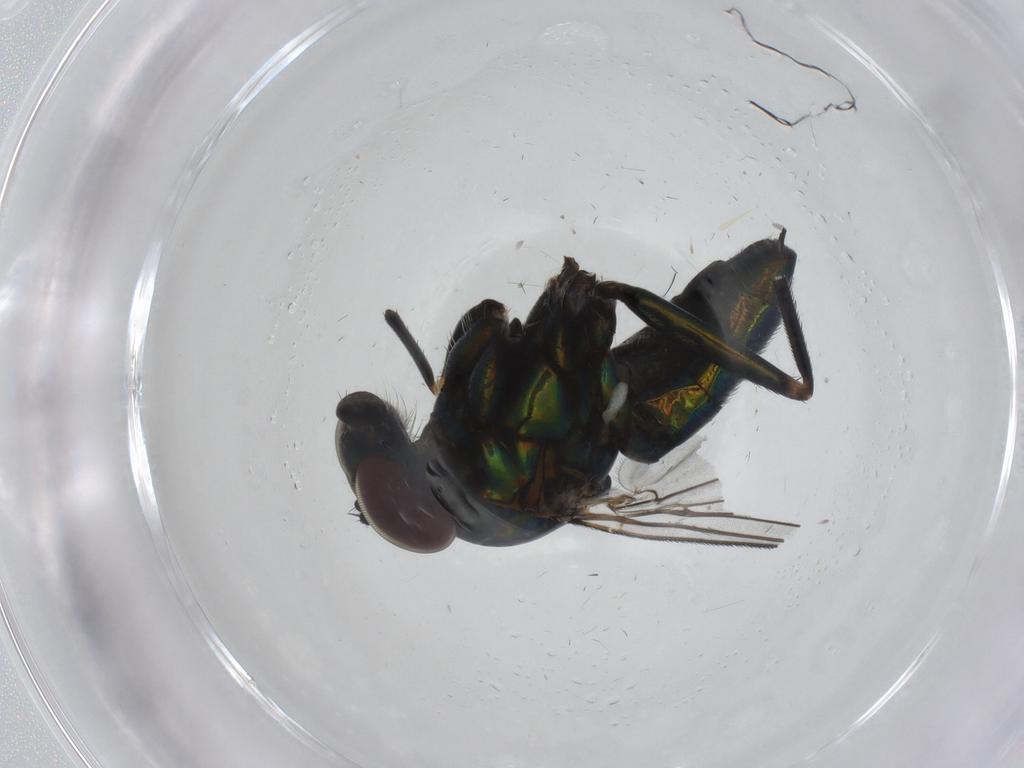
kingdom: Animalia
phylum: Arthropoda
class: Insecta
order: Diptera
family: Dolichopodidae
